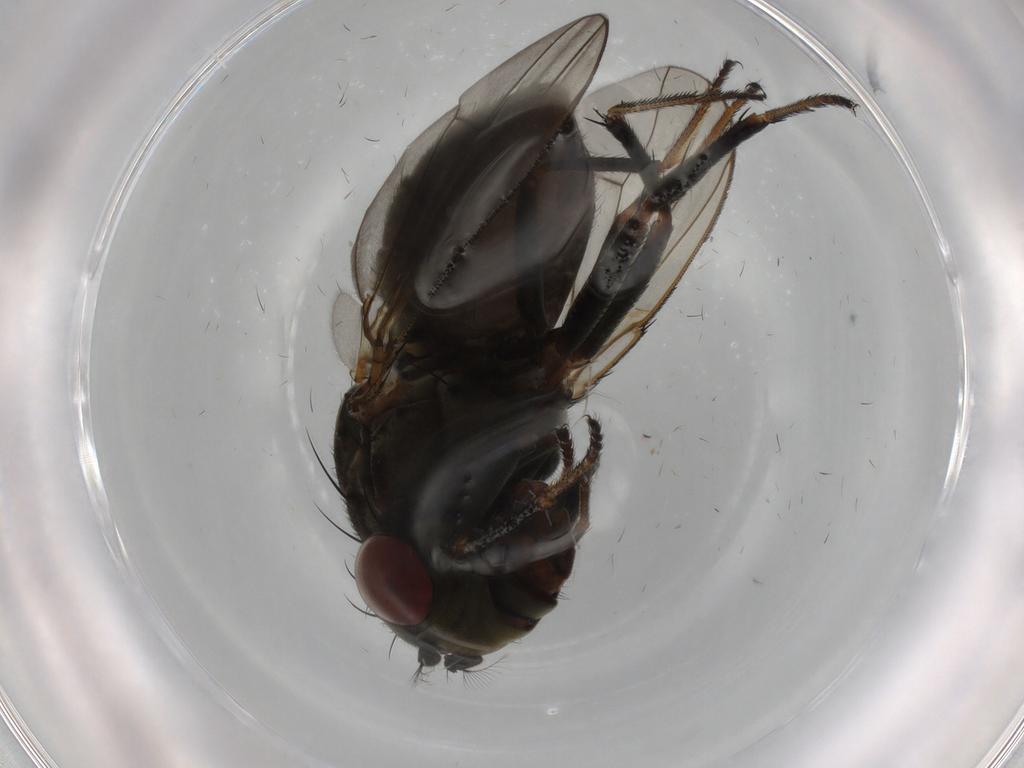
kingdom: Animalia
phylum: Arthropoda
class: Insecta
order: Diptera
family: Ephydridae
